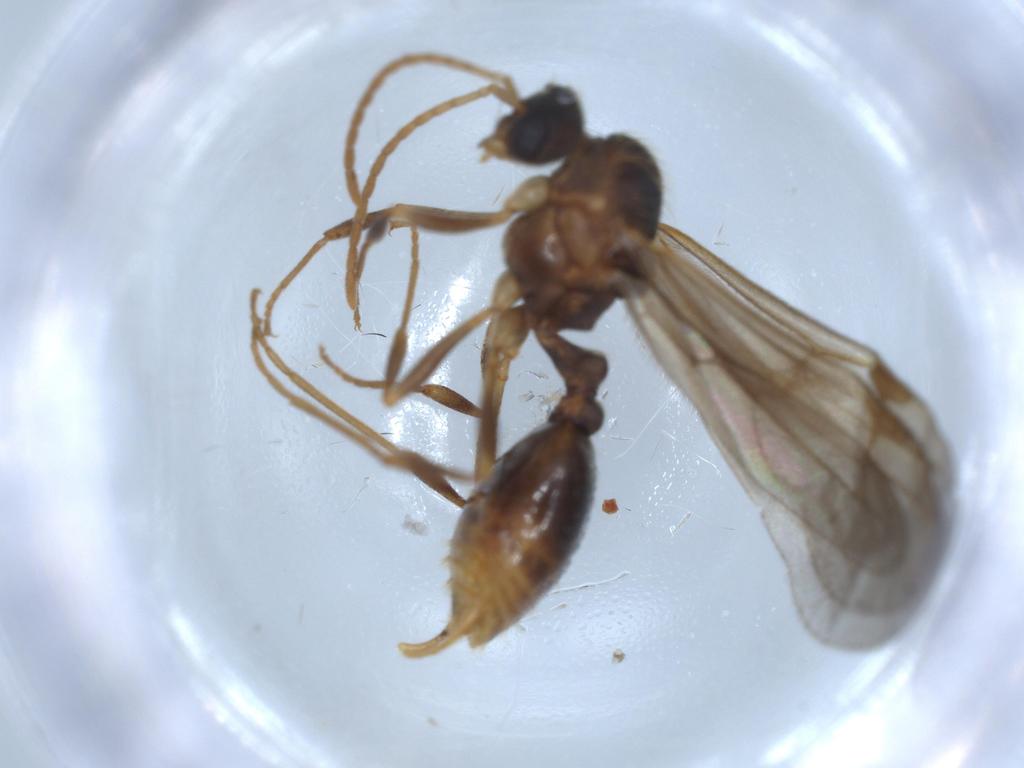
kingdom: Animalia
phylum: Arthropoda
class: Insecta
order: Hymenoptera
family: Formicidae
